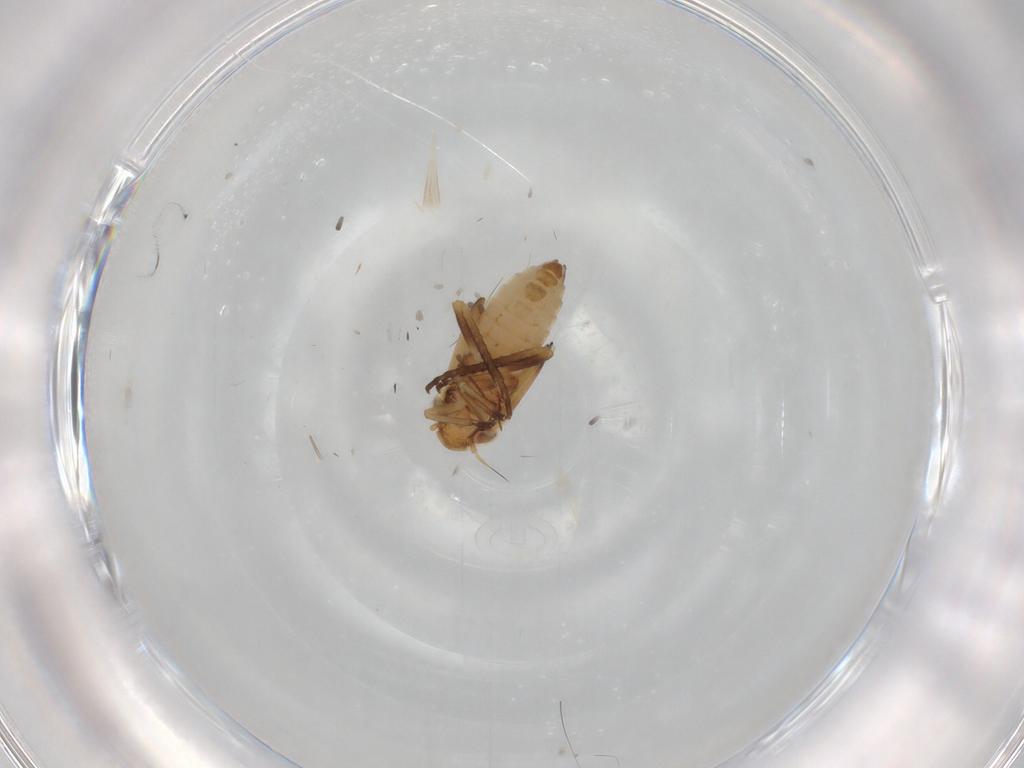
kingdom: Animalia
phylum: Arthropoda
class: Insecta
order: Hemiptera
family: Cicadellidae
